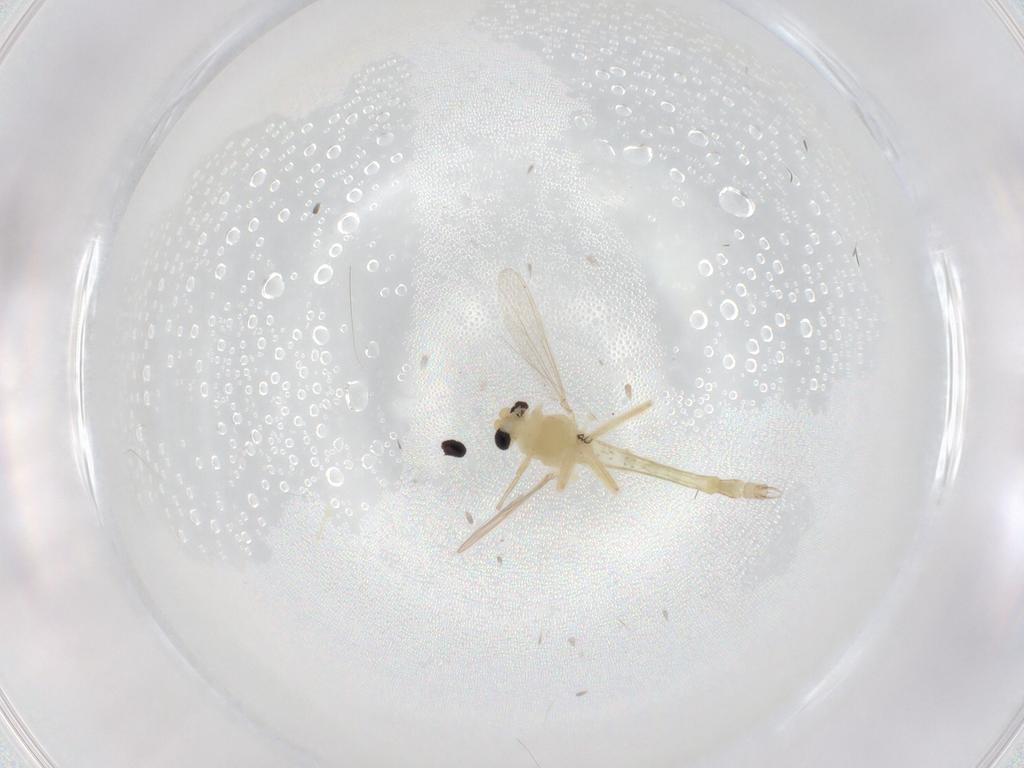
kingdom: Animalia
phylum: Arthropoda
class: Insecta
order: Diptera
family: Chironomidae
